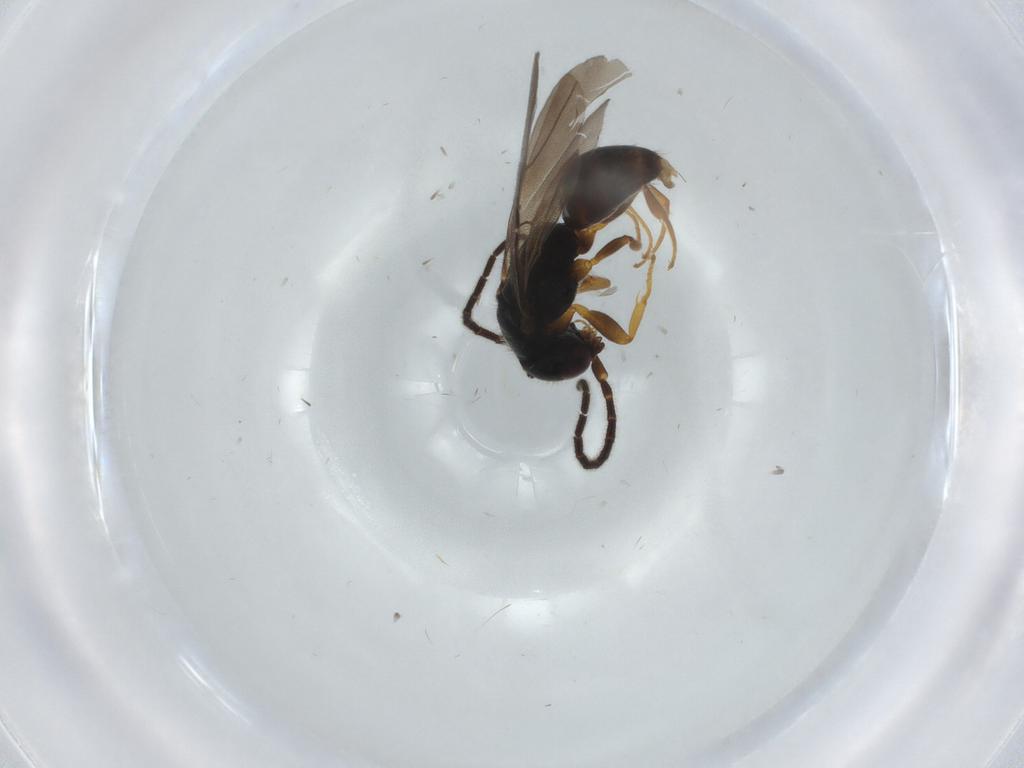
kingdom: Animalia
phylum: Arthropoda
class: Insecta
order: Hymenoptera
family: Bethylidae
